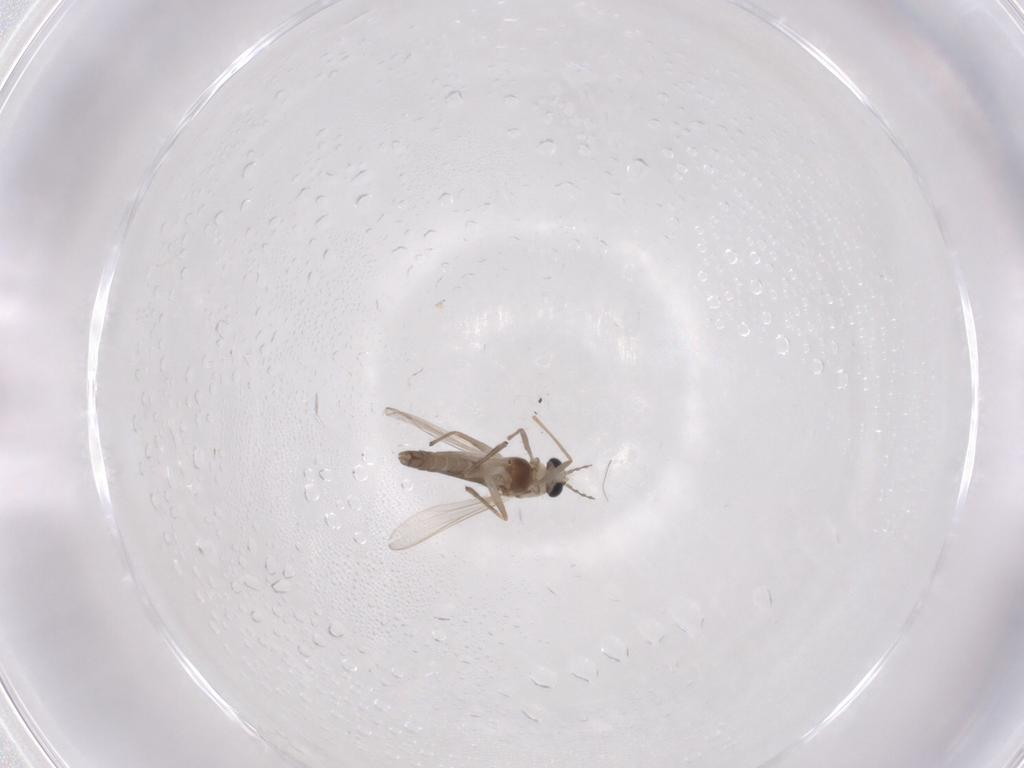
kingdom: Animalia
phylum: Arthropoda
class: Insecta
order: Diptera
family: Chironomidae
